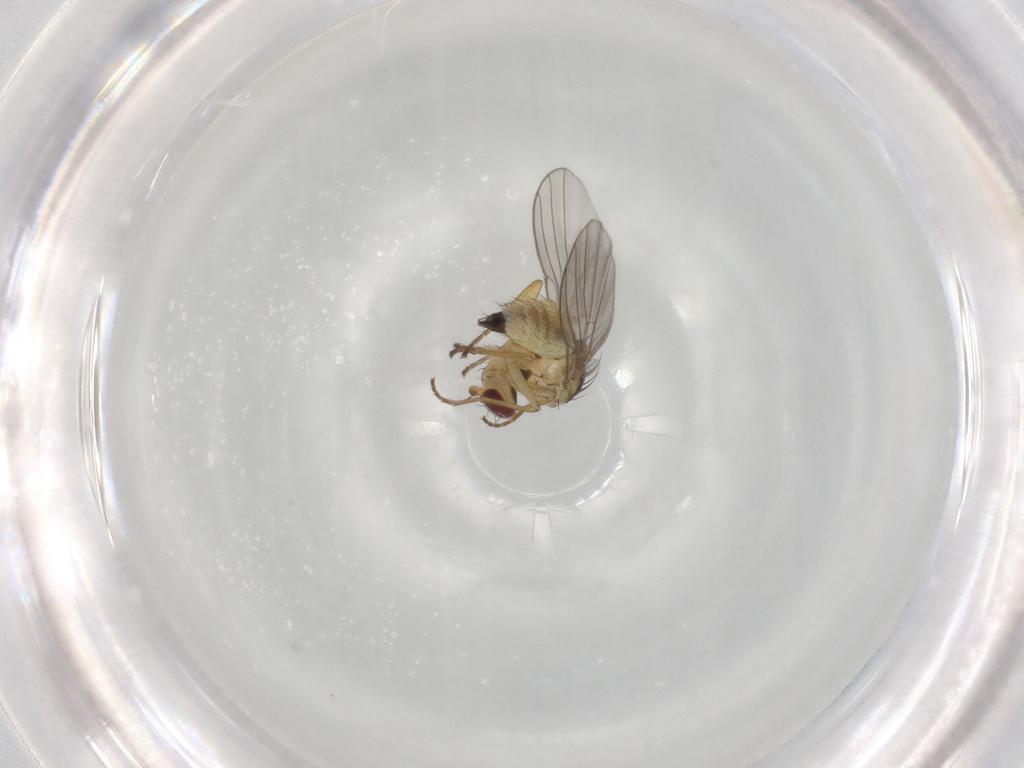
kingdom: Animalia
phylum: Arthropoda
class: Insecta
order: Diptera
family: Agromyzidae
